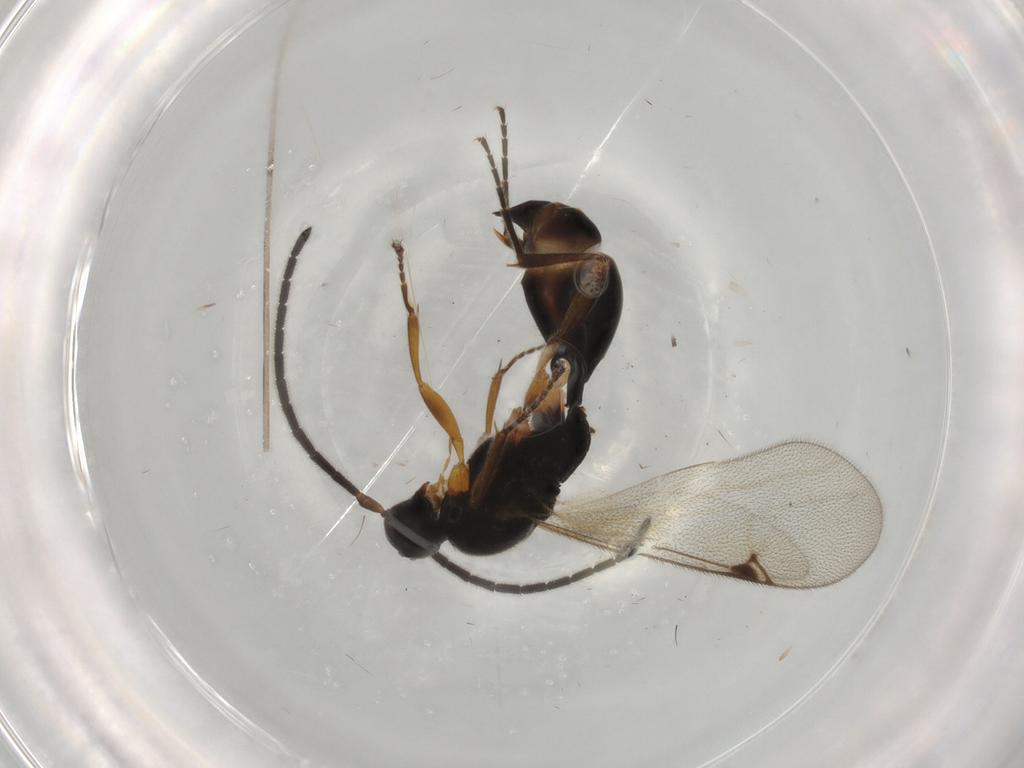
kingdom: Animalia
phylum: Arthropoda
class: Insecta
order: Hymenoptera
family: Proctotrupidae
